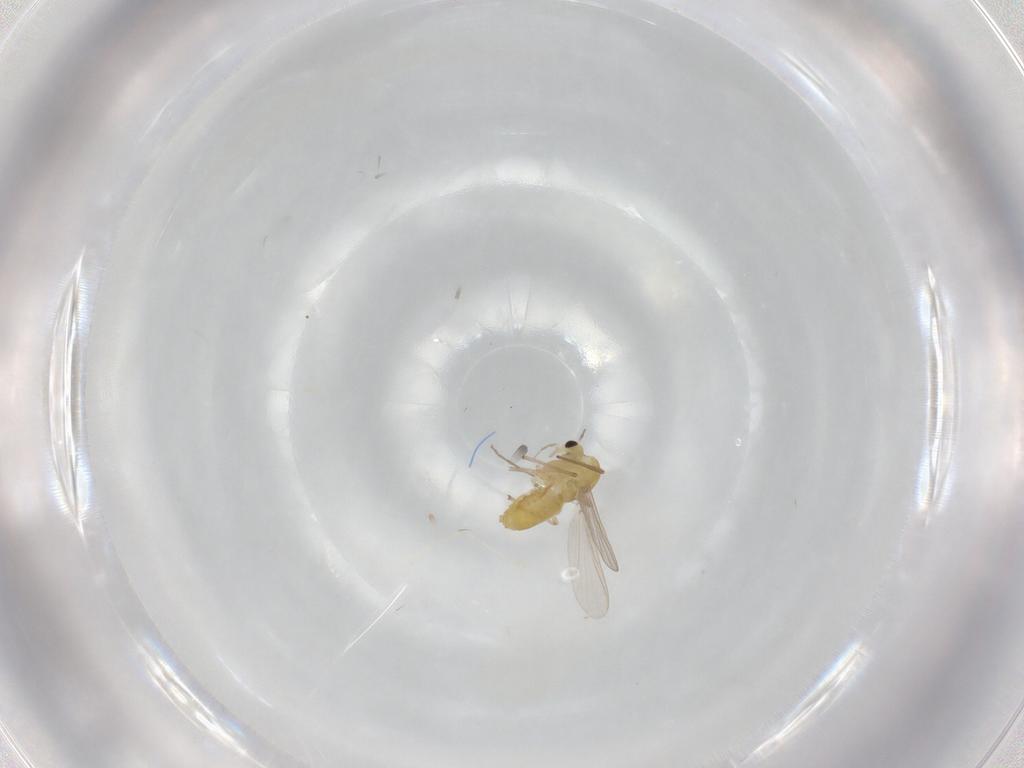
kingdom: Animalia
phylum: Arthropoda
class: Insecta
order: Diptera
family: Chironomidae
